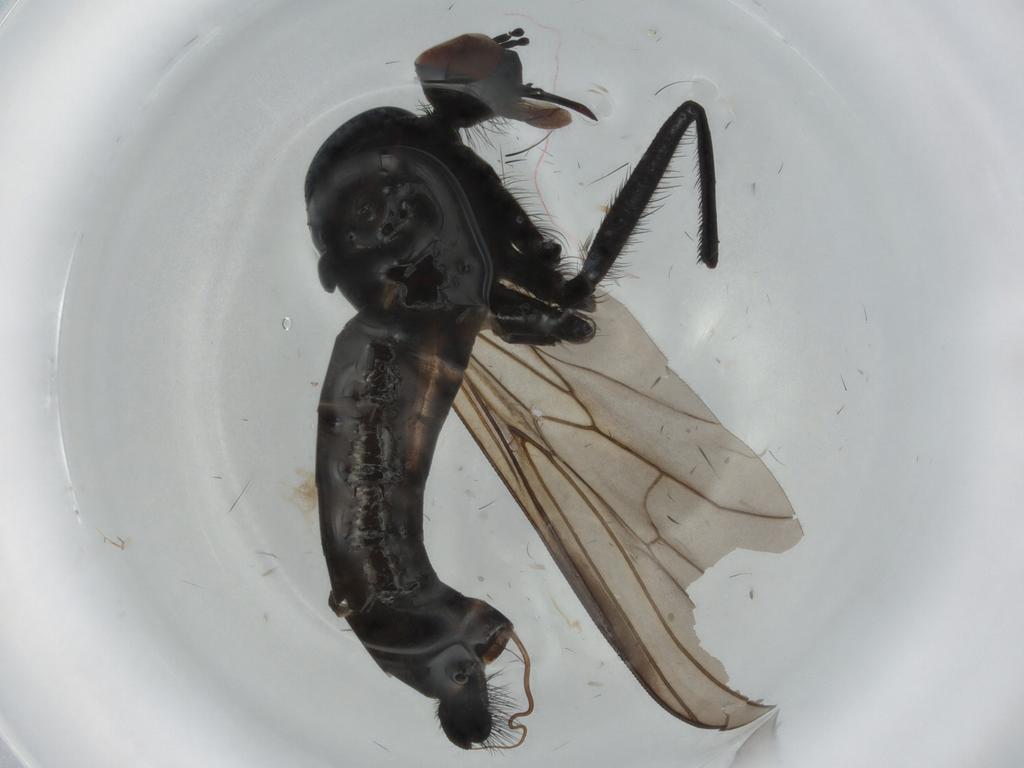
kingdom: Animalia
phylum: Arthropoda
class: Insecta
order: Diptera
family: Empididae
